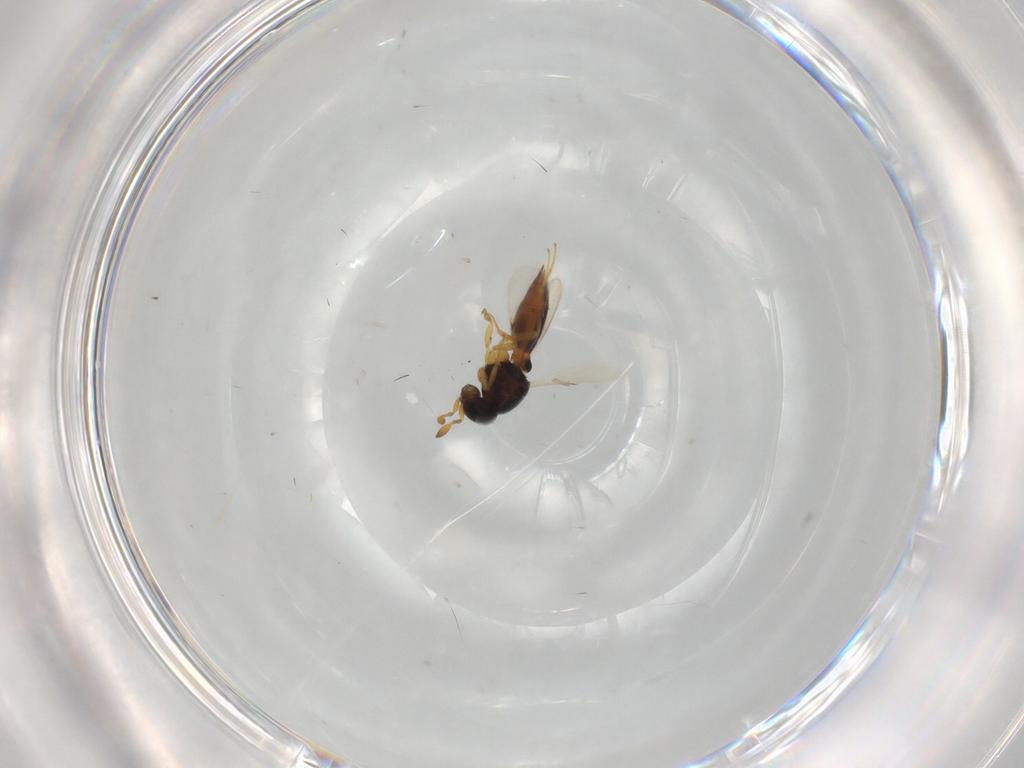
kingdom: Animalia
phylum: Arthropoda
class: Insecta
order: Hymenoptera
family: Scelionidae
